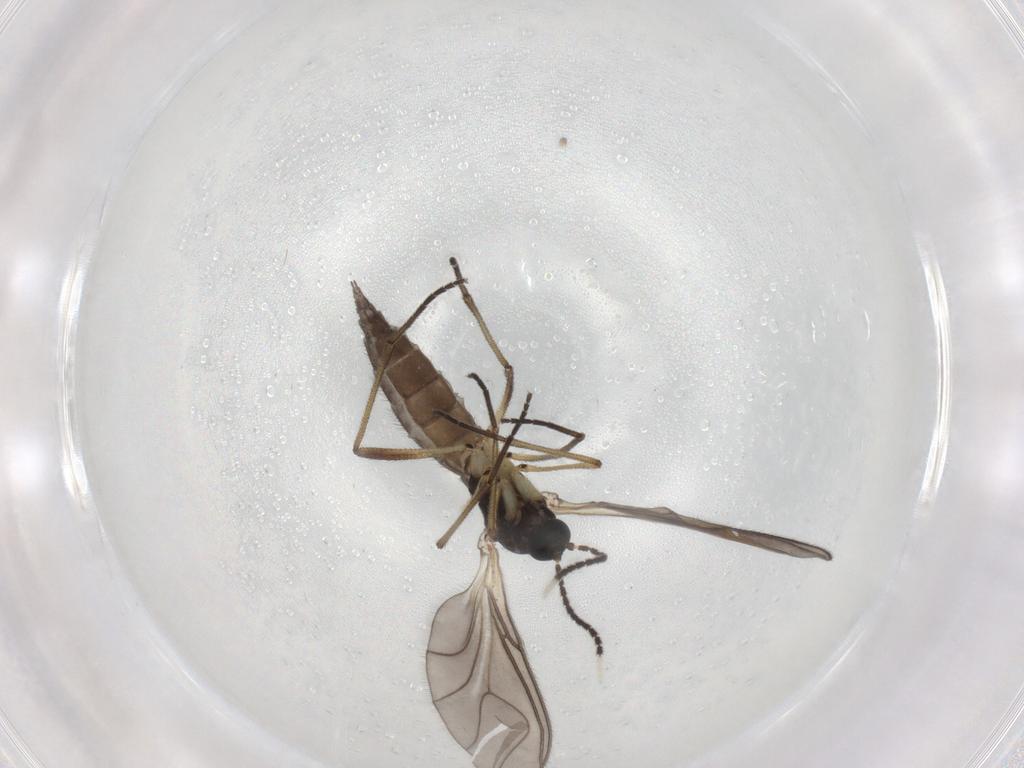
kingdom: Animalia
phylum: Arthropoda
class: Insecta
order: Diptera
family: Sciaridae
